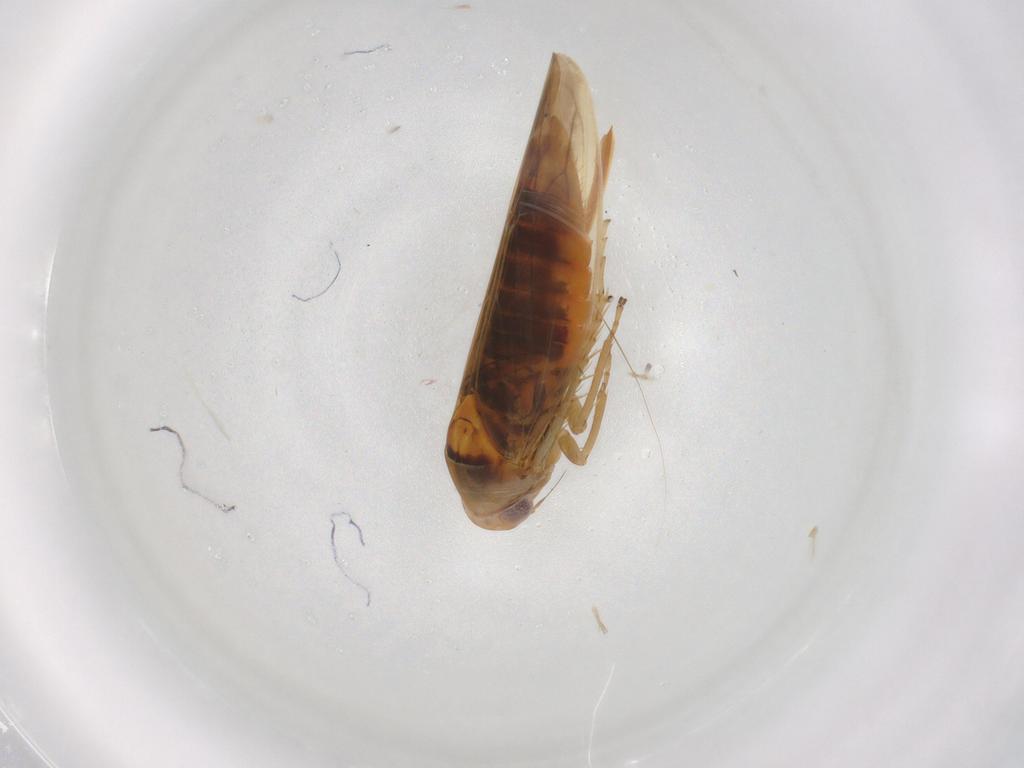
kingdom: Animalia
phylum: Arthropoda
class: Insecta
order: Hemiptera
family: Cicadellidae
